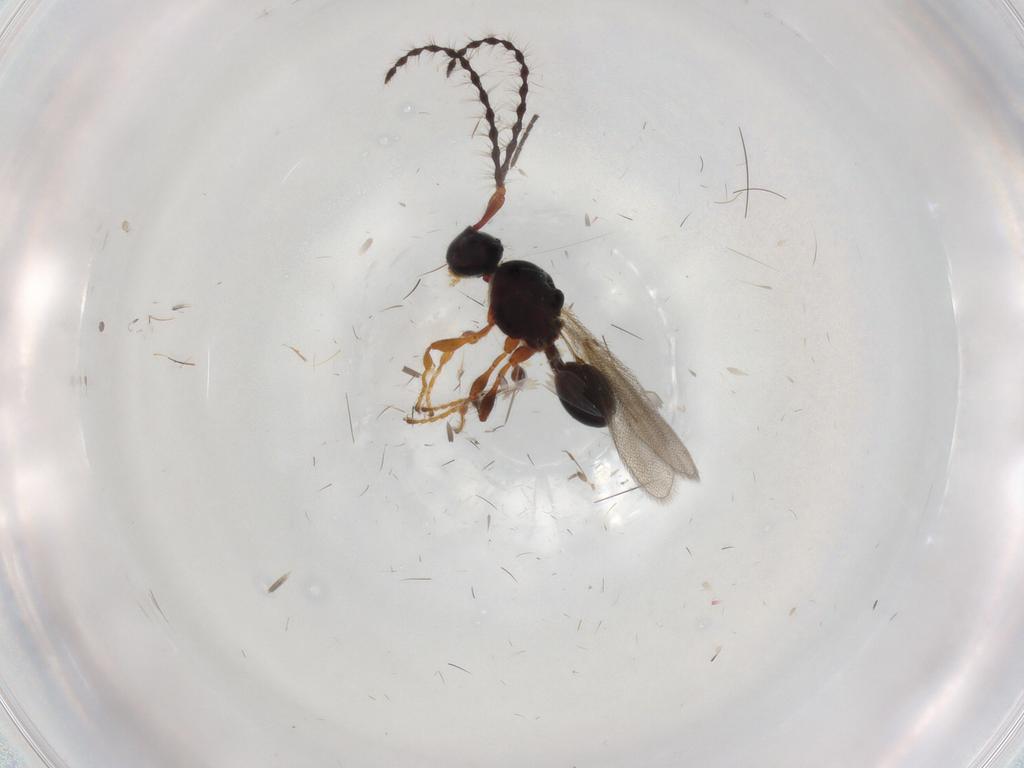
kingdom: Animalia
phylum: Arthropoda
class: Insecta
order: Hymenoptera
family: Diapriidae
